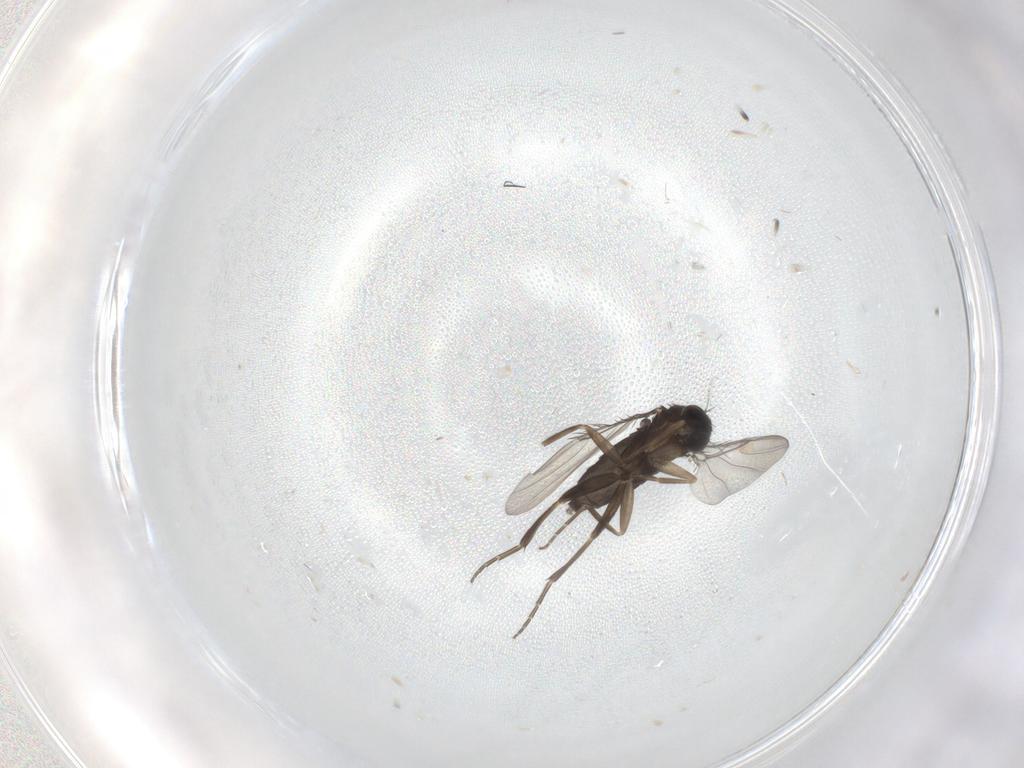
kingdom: Animalia
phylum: Arthropoda
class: Insecta
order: Diptera
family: Phoridae
